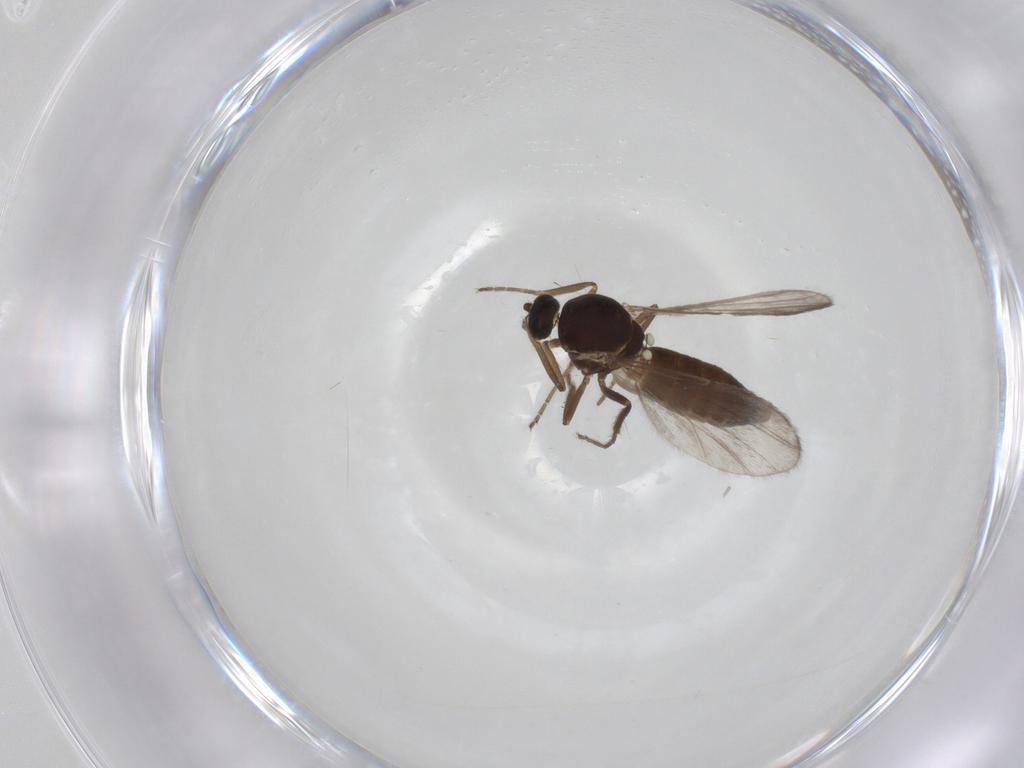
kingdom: Animalia
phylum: Arthropoda
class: Insecta
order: Diptera
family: Ceratopogonidae
